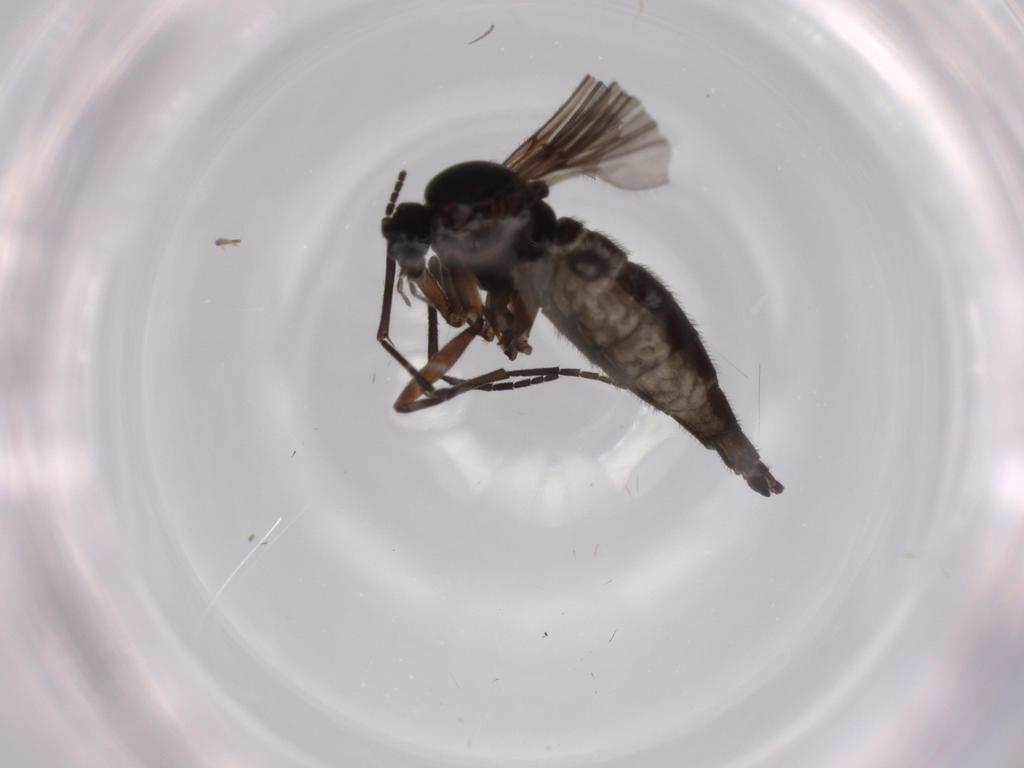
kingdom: Animalia
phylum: Arthropoda
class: Insecta
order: Diptera
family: Sciaridae
